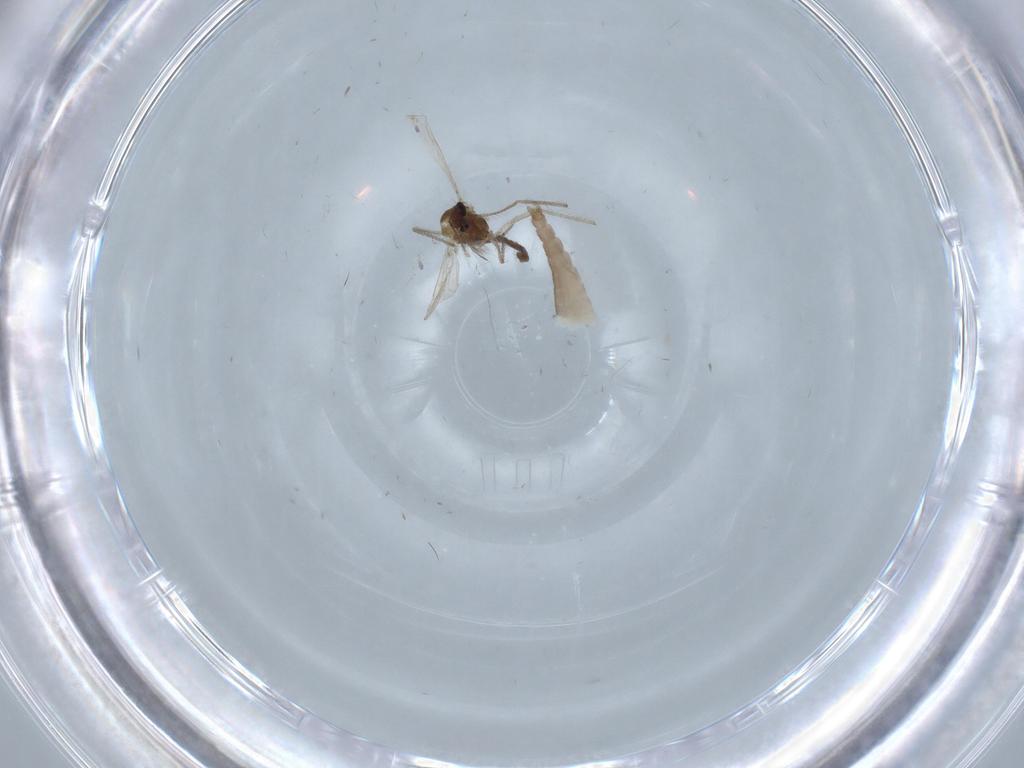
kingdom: Animalia
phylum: Arthropoda
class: Insecta
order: Diptera
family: Chironomidae
